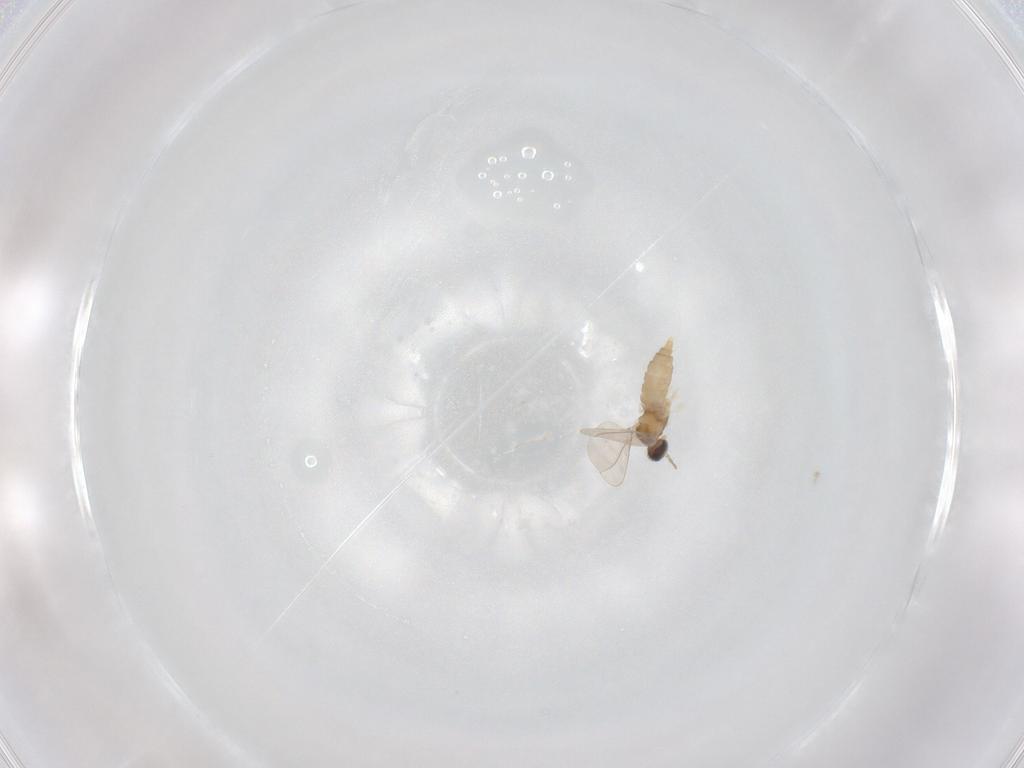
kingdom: Animalia
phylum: Arthropoda
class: Insecta
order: Diptera
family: Cecidomyiidae
